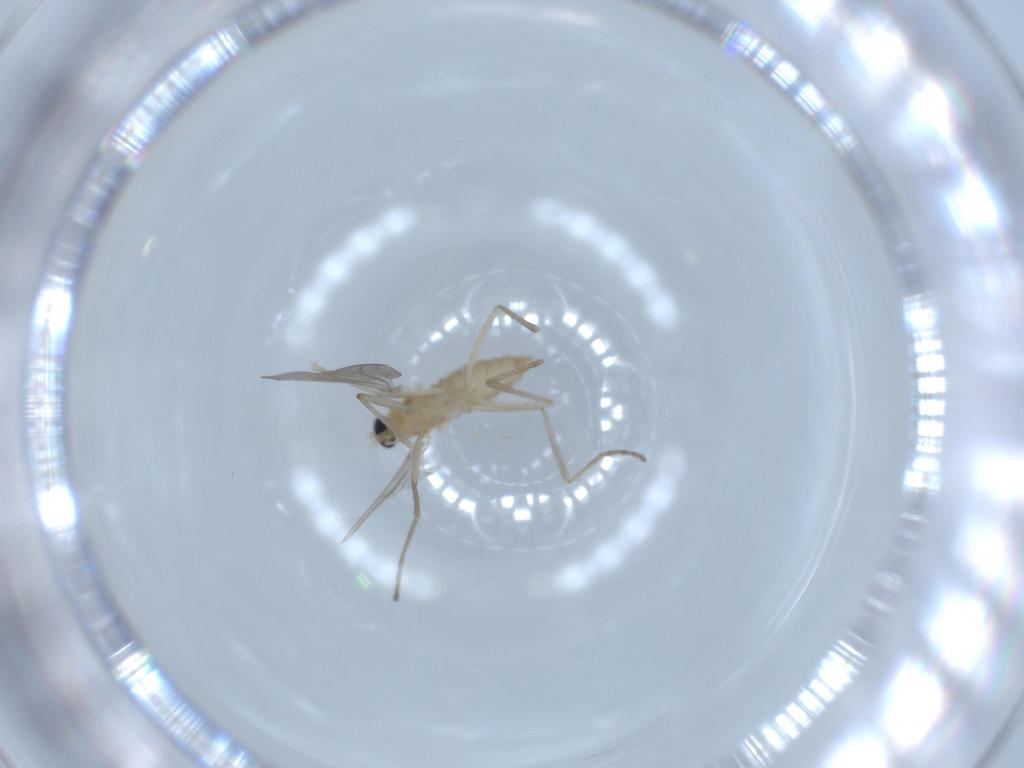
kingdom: Animalia
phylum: Arthropoda
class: Insecta
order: Diptera
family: Cecidomyiidae
